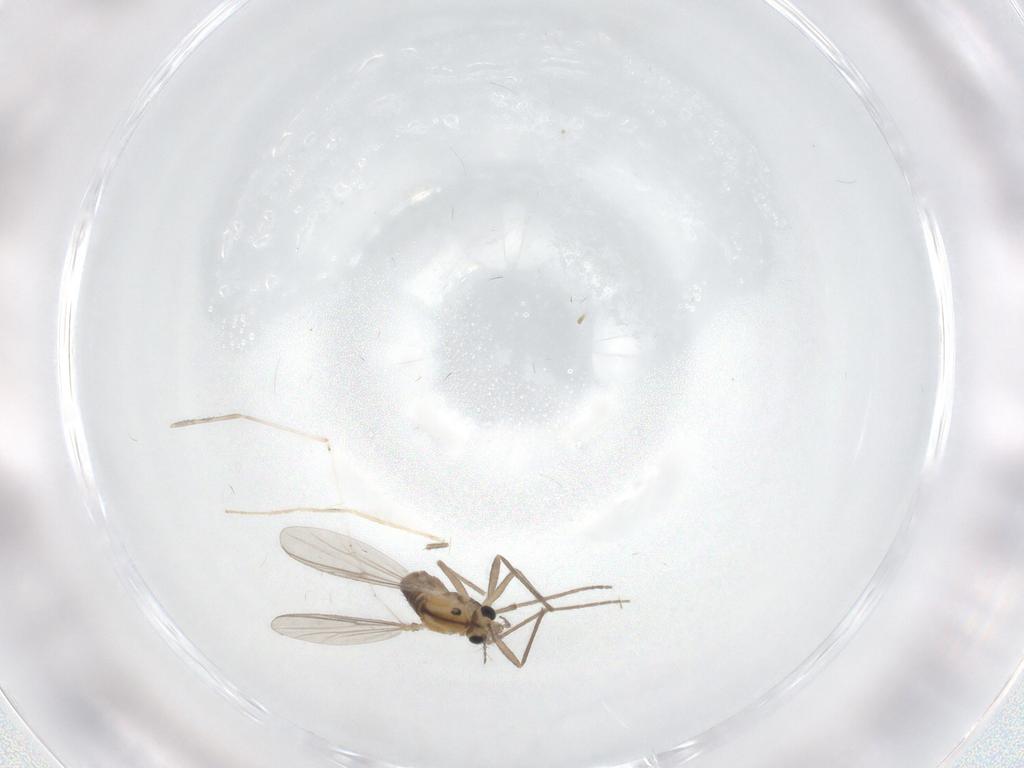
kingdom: Animalia
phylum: Arthropoda
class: Insecta
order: Diptera
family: Chironomidae
